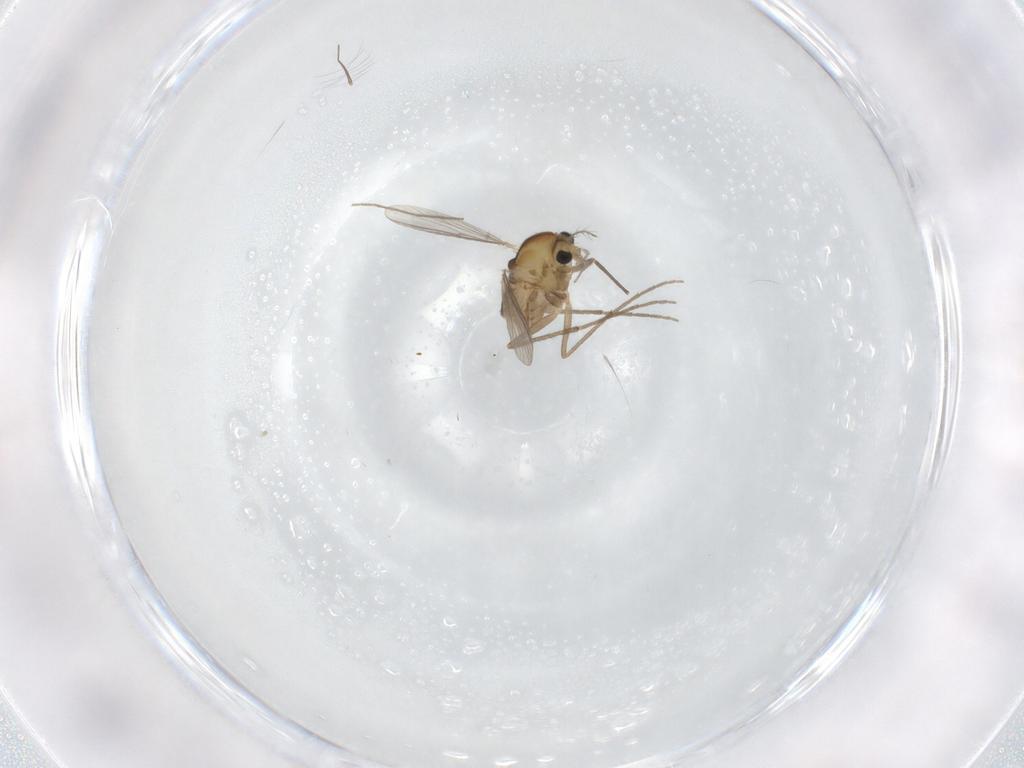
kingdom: Animalia
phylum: Arthropoda
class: Insecta
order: Diptera
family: Chironomidae
